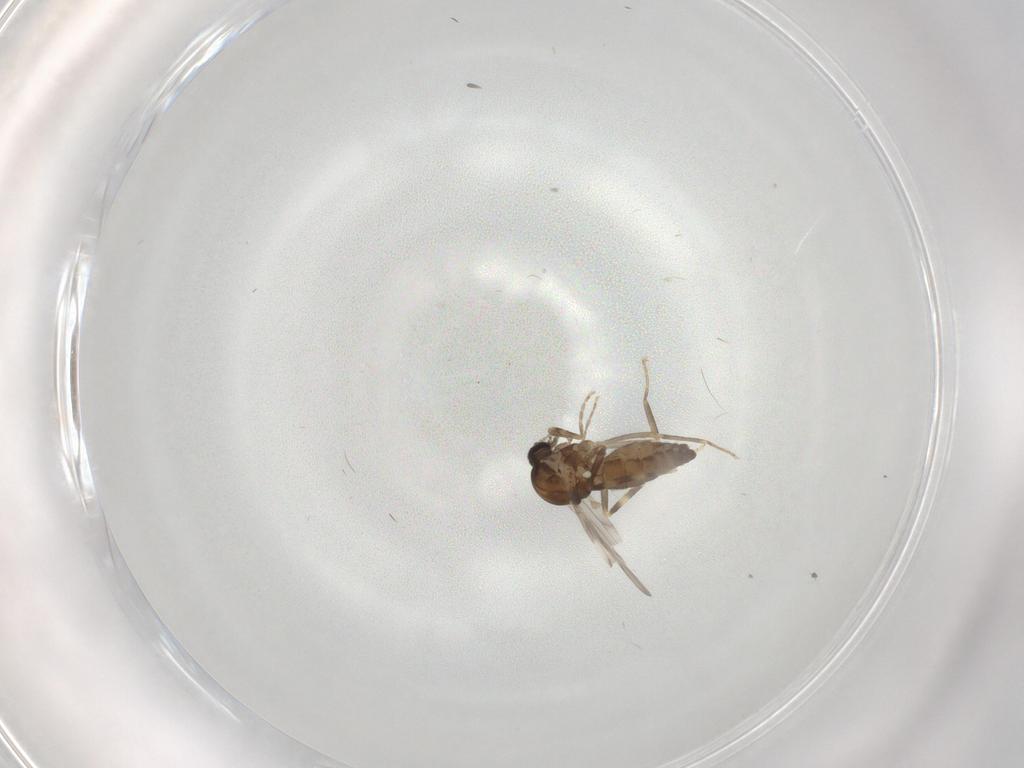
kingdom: Animalia
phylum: Arthropoda
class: Insecta
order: Diptera
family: Ceratopogonidae
